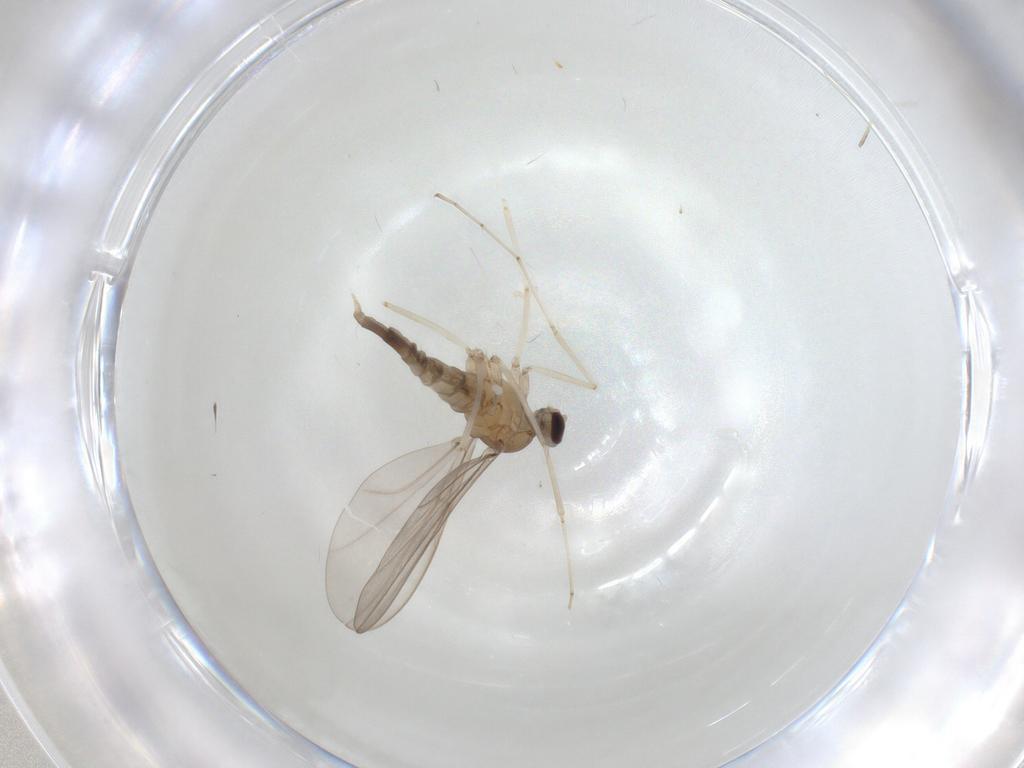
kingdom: Animalia
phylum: Arthropoda
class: Insecta
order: Diptera
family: Cecidomyiidae
